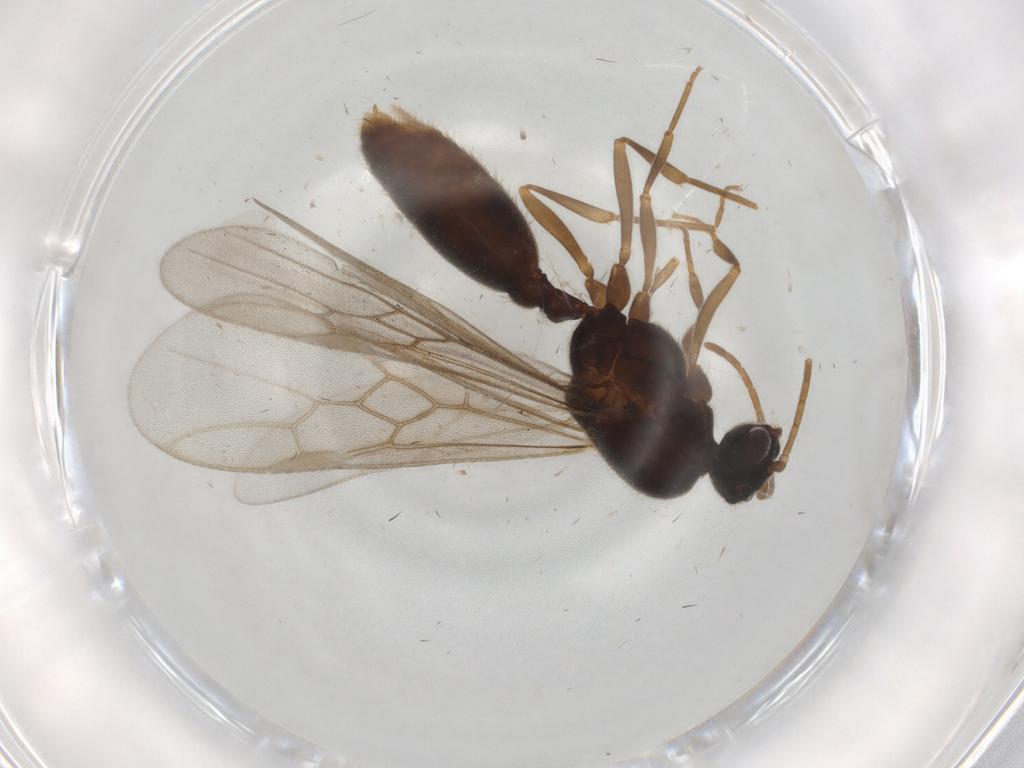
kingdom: Animalia
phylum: Arthropoda
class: Insecta
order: Hymenoptera
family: Formicidae
